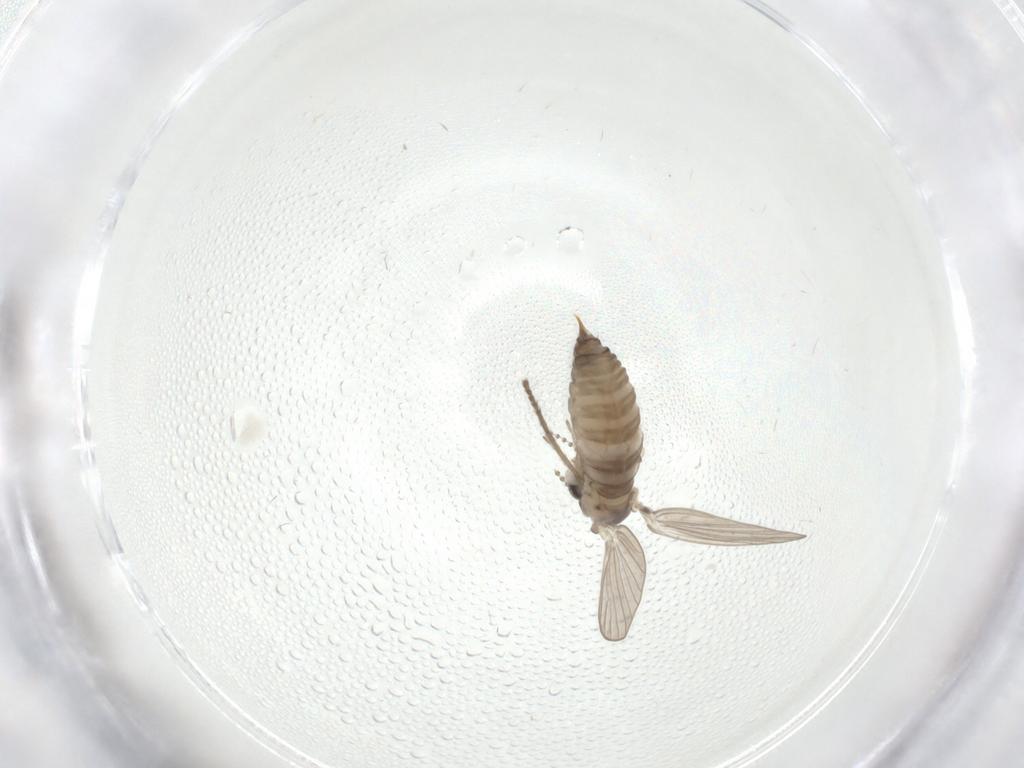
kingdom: Animalia
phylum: Arthropoda
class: Insecta
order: Diptera
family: Psychodidae
